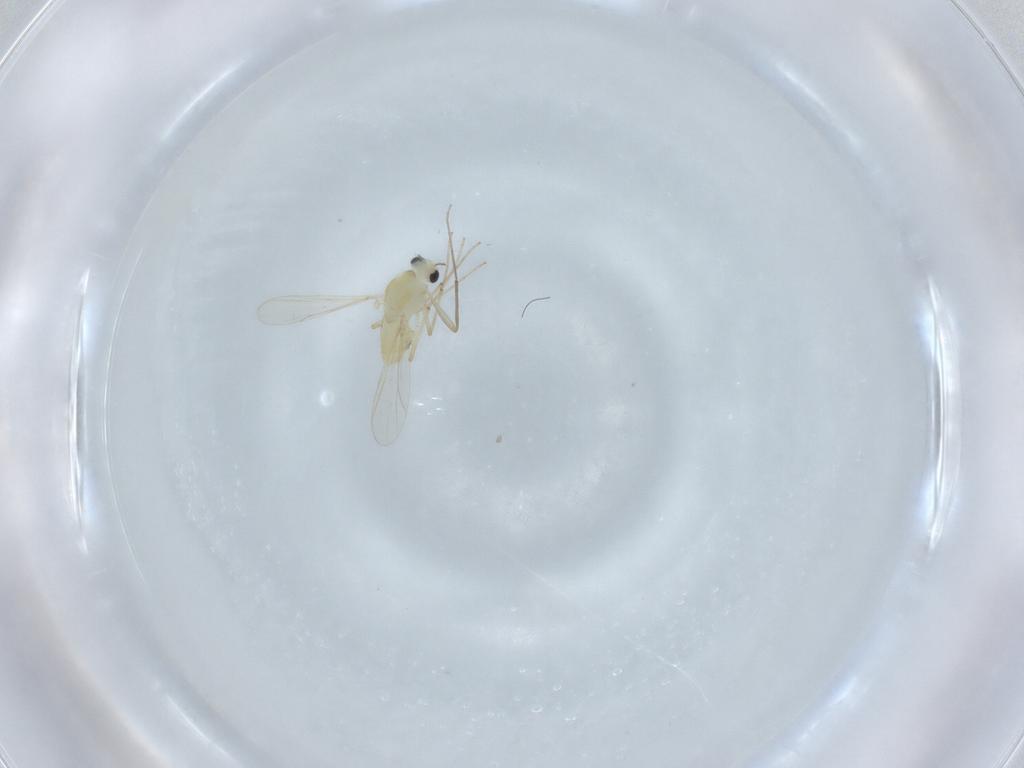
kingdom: Animalia
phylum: Arthropoda
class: Insecta
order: Diptera
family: Chironomidae
